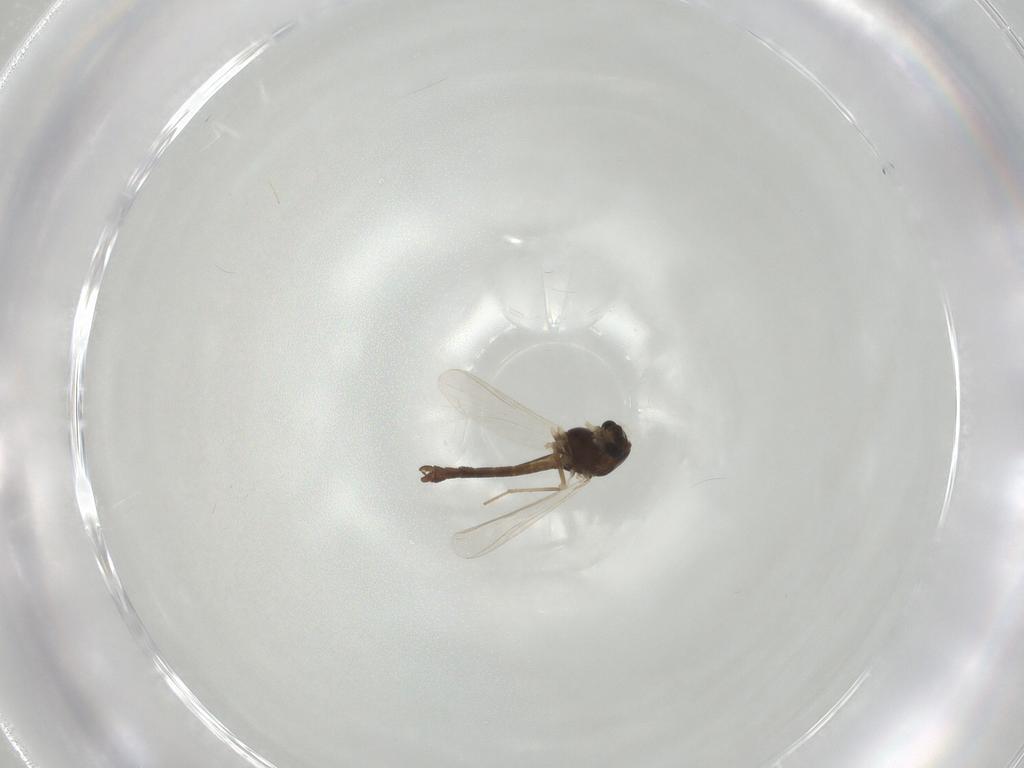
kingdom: Animalia
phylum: Arthropoda
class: Insecta
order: Diptera
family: Chironomidae
